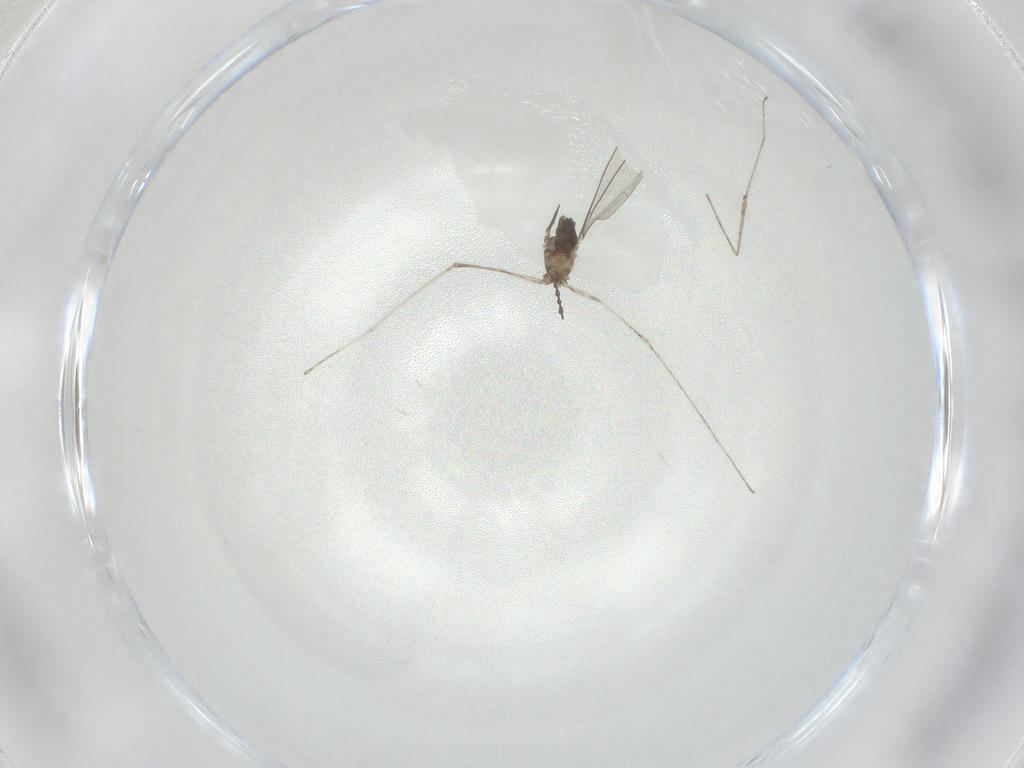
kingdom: Animalia
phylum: Arthropoda
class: Insecta
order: Diptera
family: Cecidomyiidae
